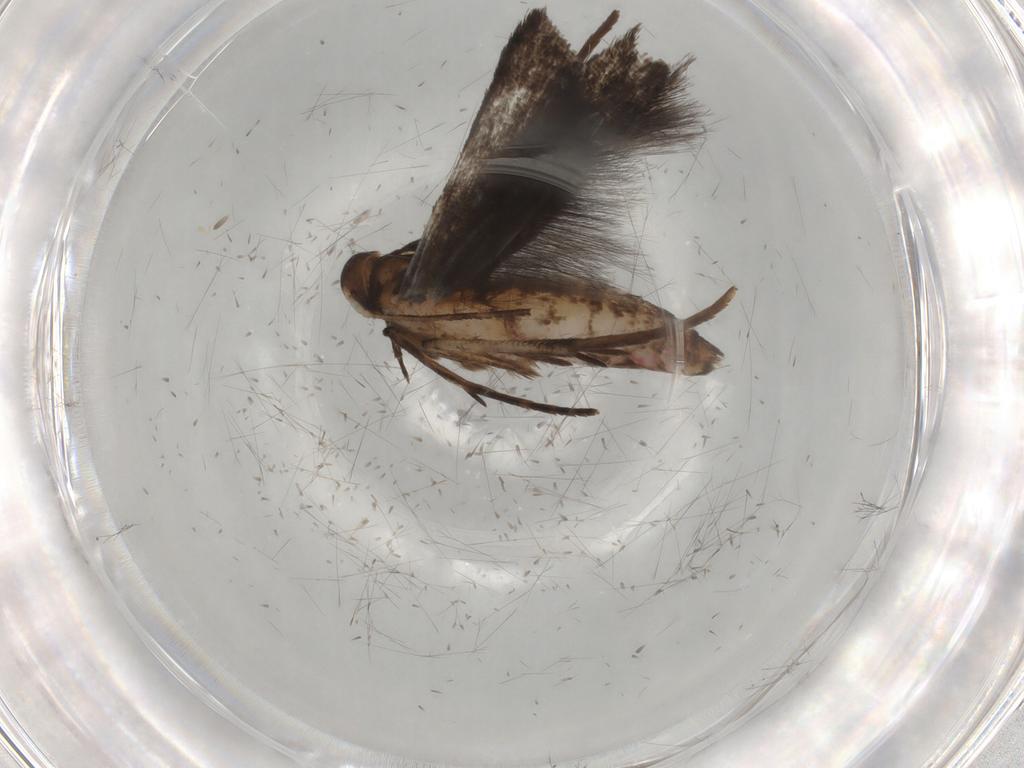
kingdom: Animalia
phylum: Arthropoda
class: Insecta
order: Lepidoptera
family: Gelechiidae
